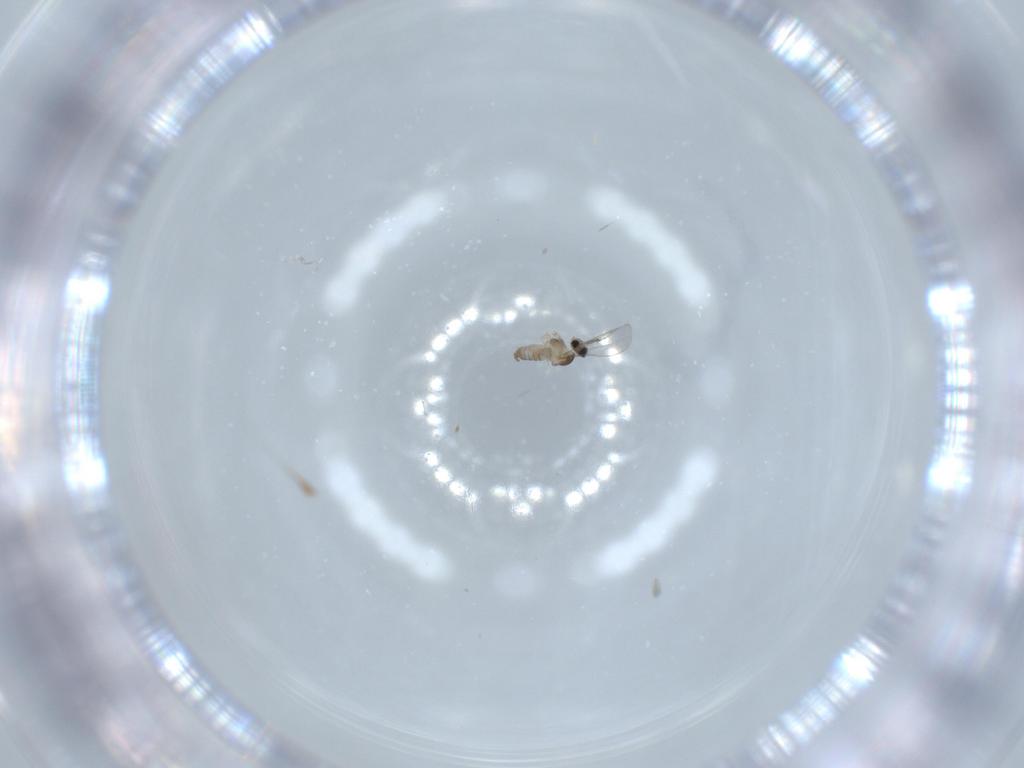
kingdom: Animalia
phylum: Arthropoda
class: Insecta
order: Diptera
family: Cecidomyiidae
